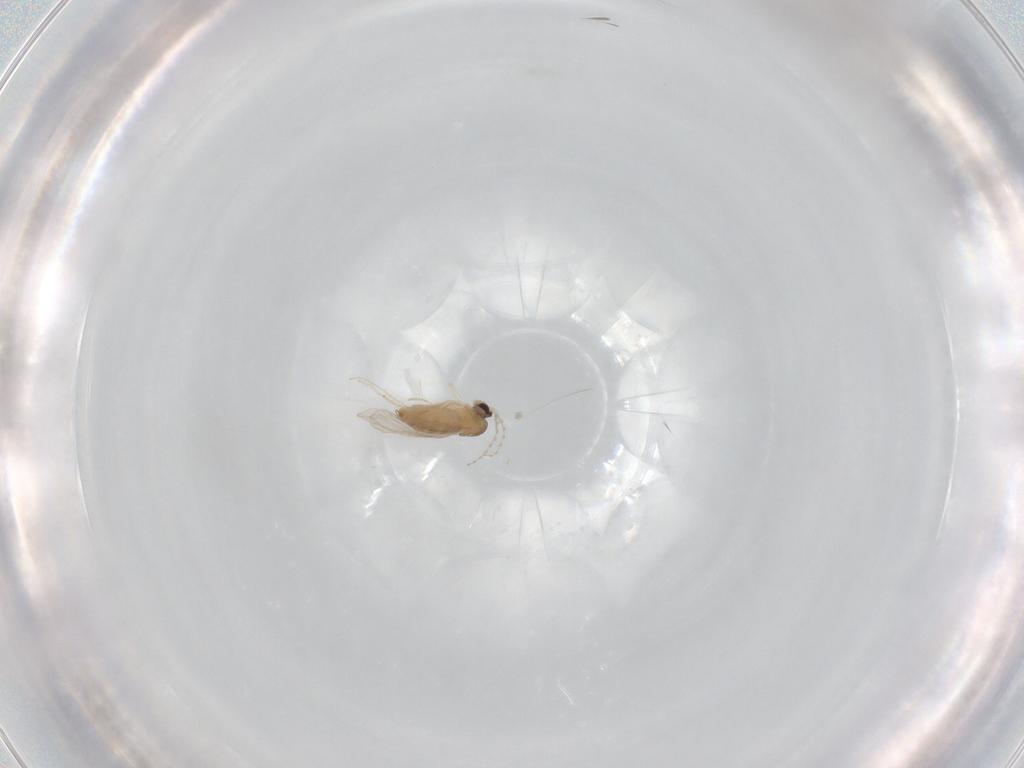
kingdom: Animalia
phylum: Arthropoda
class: Insecta
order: Diptera
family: Cecidomyiidae
